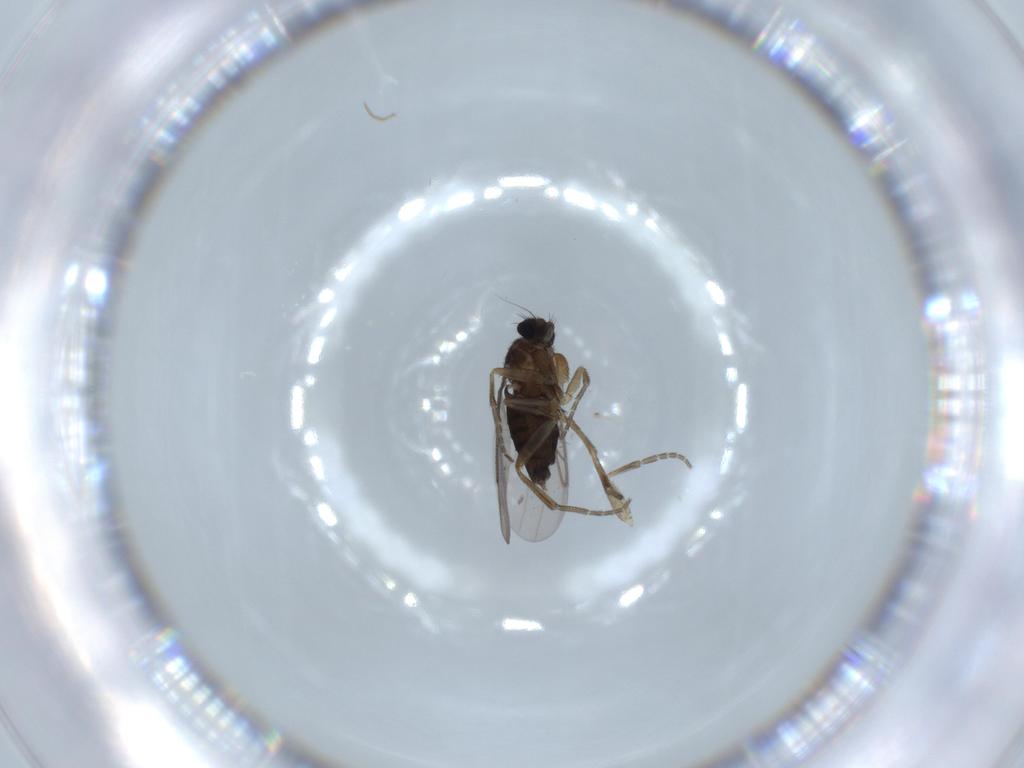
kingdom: Animalia
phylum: Arthropoda
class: Insecta
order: Diptera
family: Phoridae
